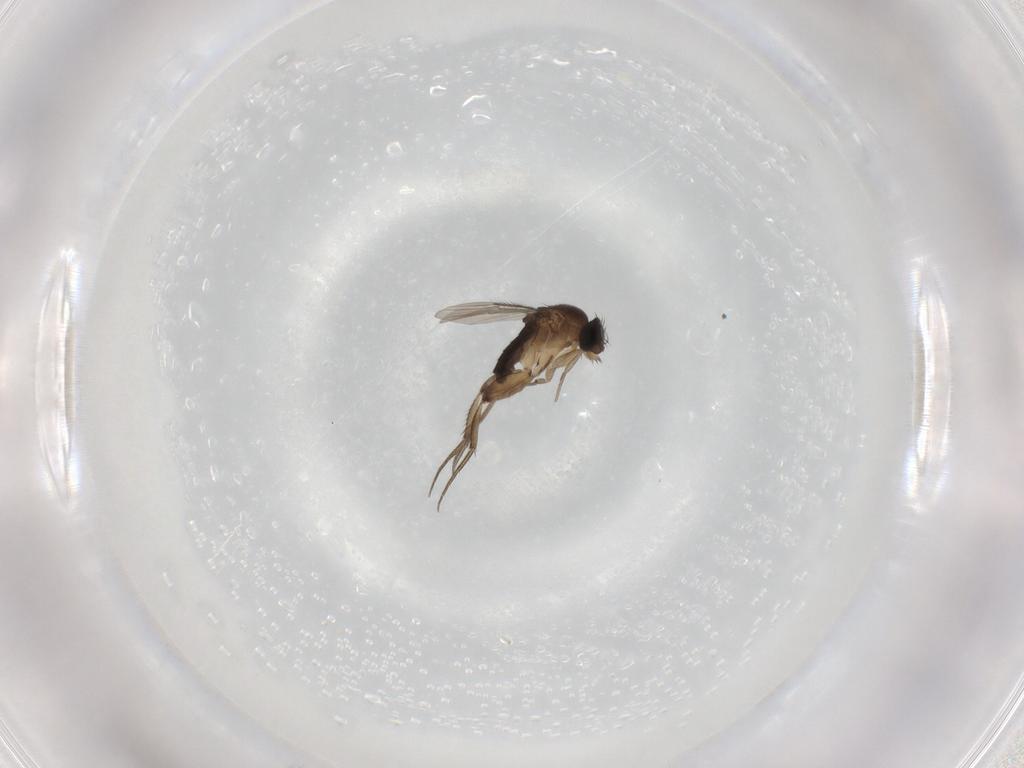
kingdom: Animalia
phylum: Arthropoda
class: Insecta
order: Diptera
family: Phoridae
